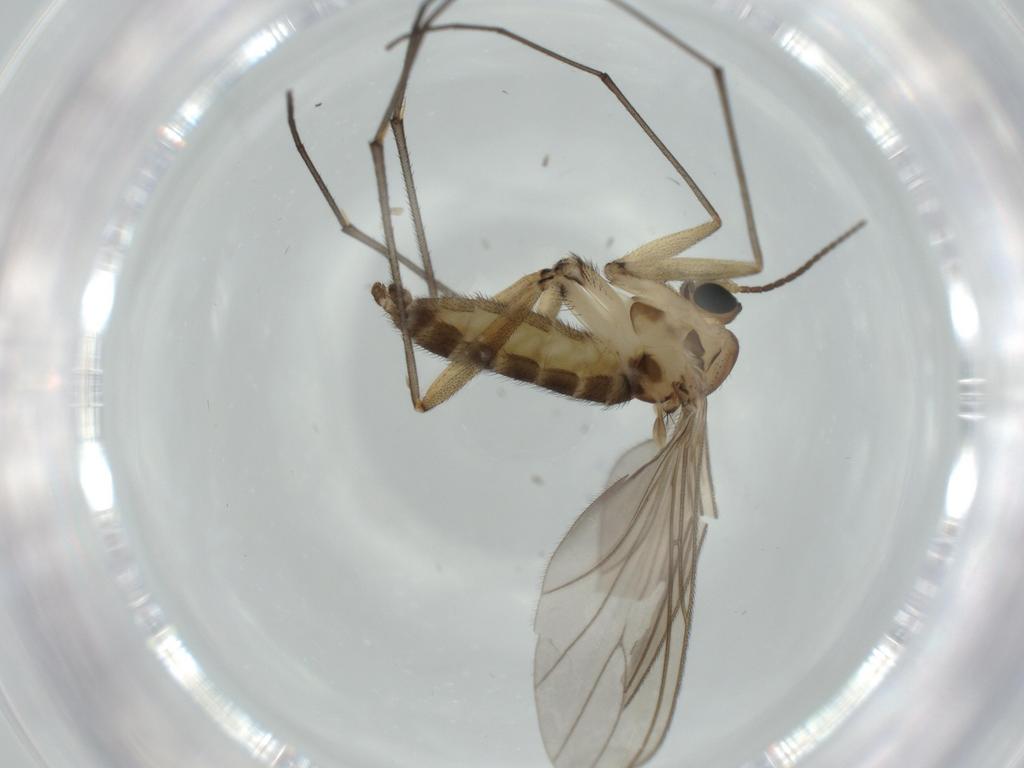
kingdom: Animalia
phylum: Arthropoda
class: Insecta
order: Diptera
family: Sciaridae
